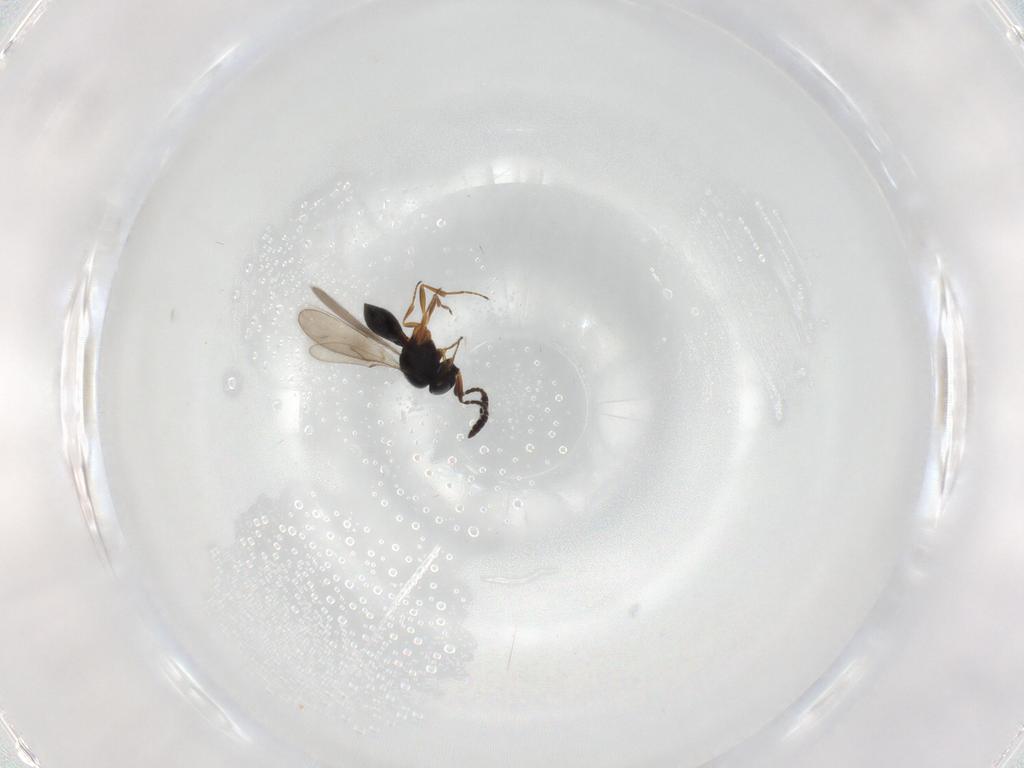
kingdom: Animalia
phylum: Arthropoda
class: Insecta
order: Hymenoptera
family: Scelionidae
